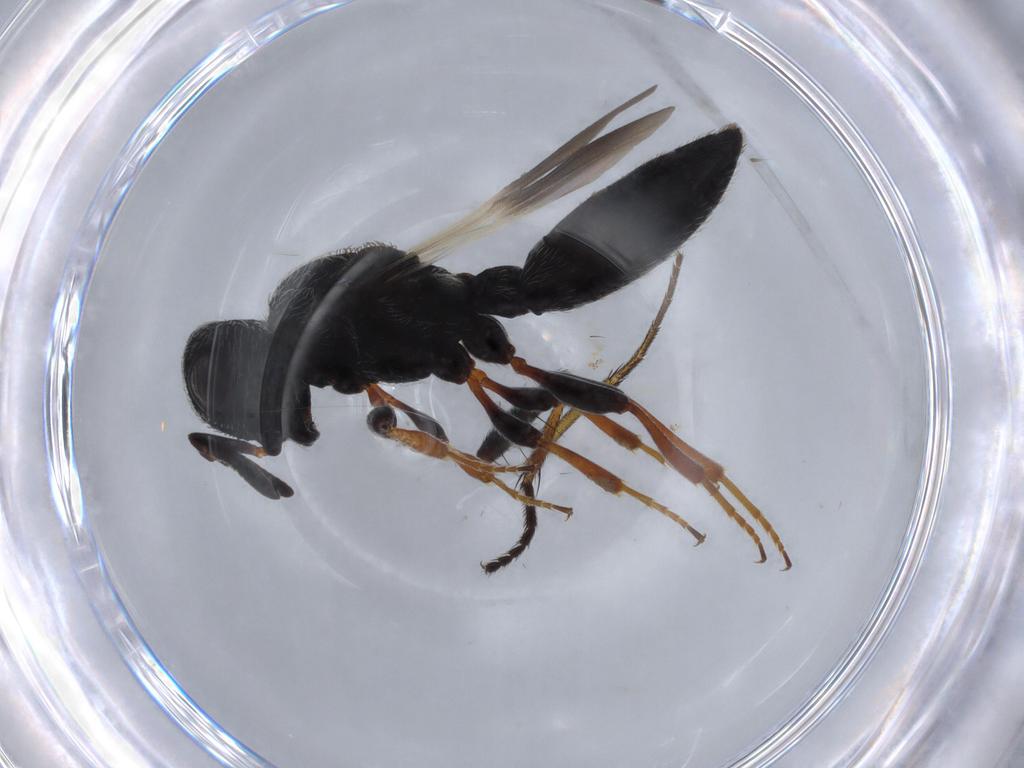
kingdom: Animalia
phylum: Arthropoda
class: Insecta
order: Hymenoptera
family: Scelionidae
